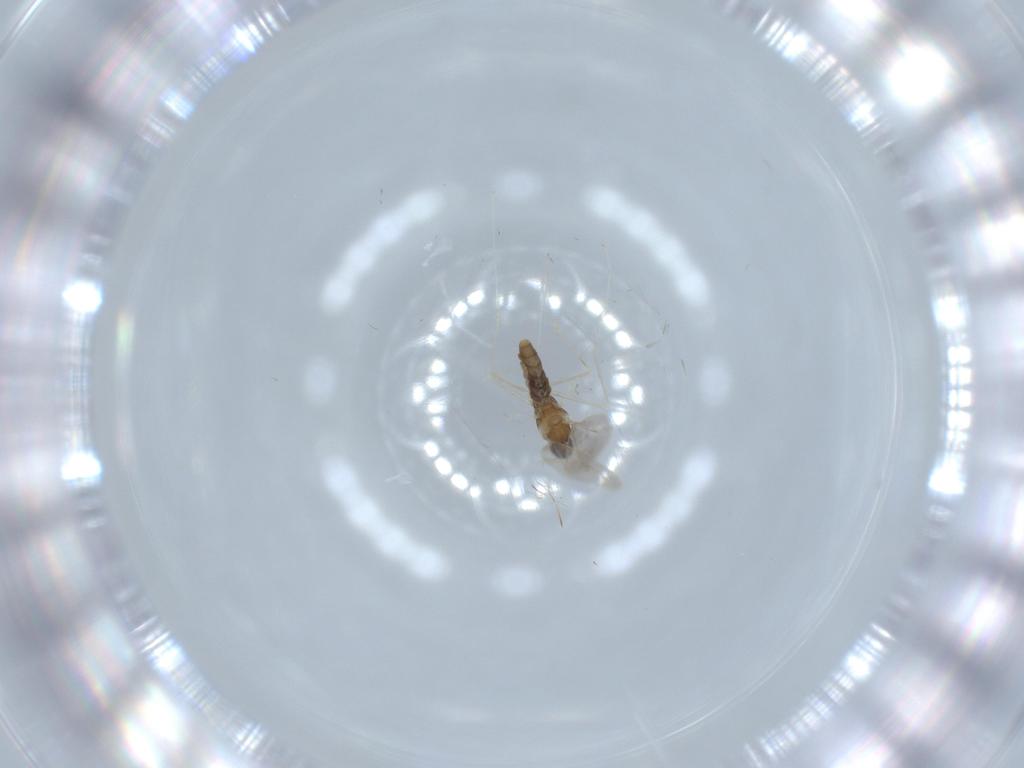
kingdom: Animalia
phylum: Arthropoda
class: Insecta
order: Diptera
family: Cecidomyiidae
